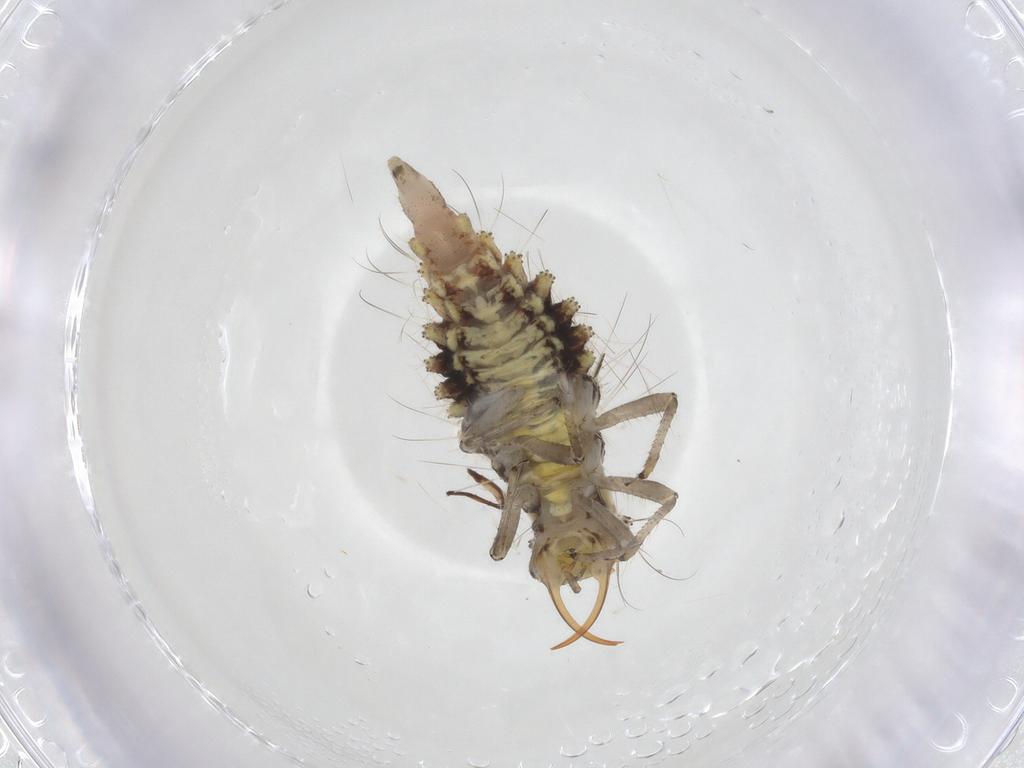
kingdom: Animalia
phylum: Arthropoda
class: Insecta
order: Neuroptera
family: Hemerobiidae
